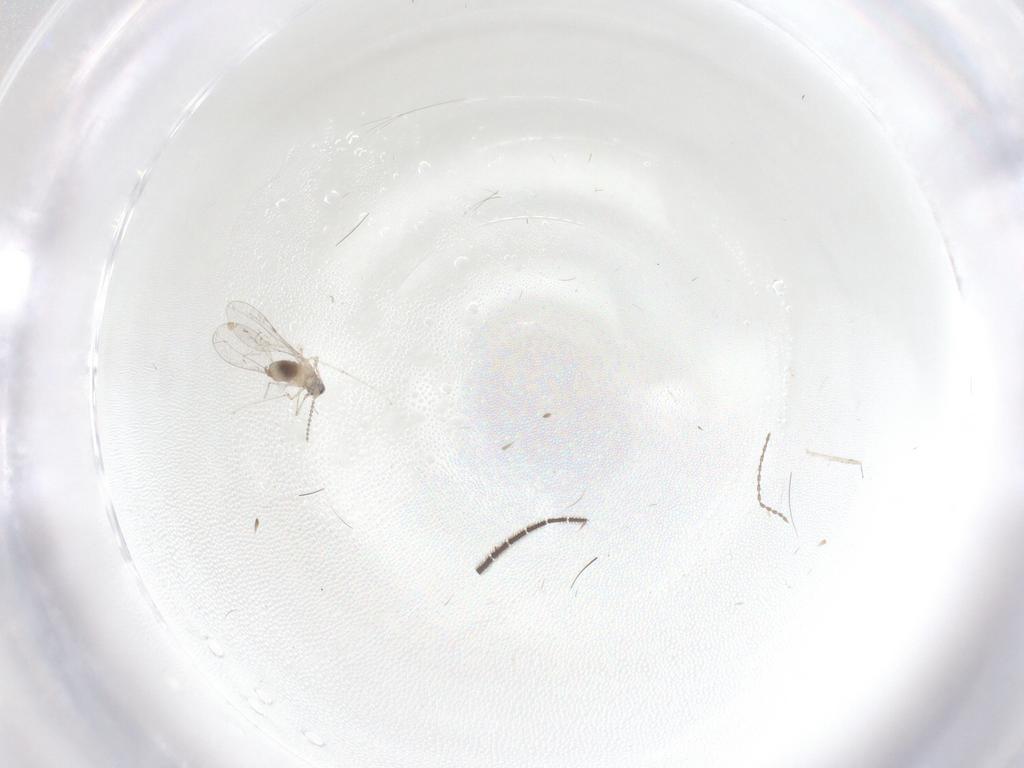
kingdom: Animalia
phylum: Arthropoda
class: Insecta
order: Diptera
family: Cecidomyiidae
